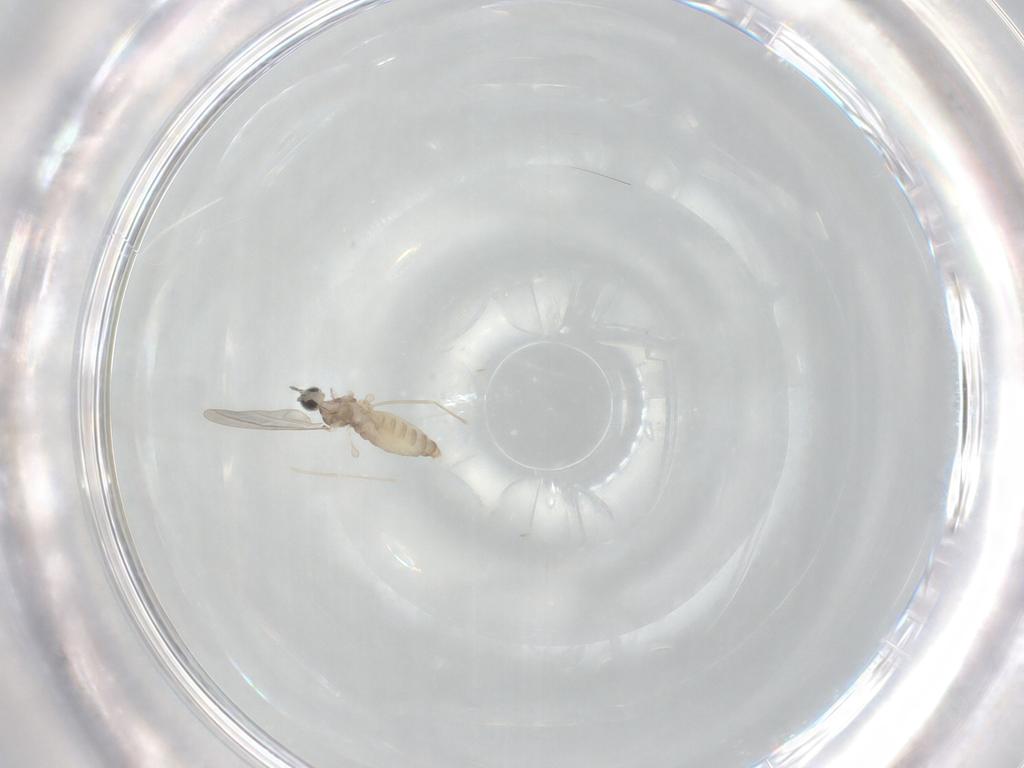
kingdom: Animalia
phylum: Arthropoda
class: Insecta
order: Diptera
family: Cecidomyiidae
